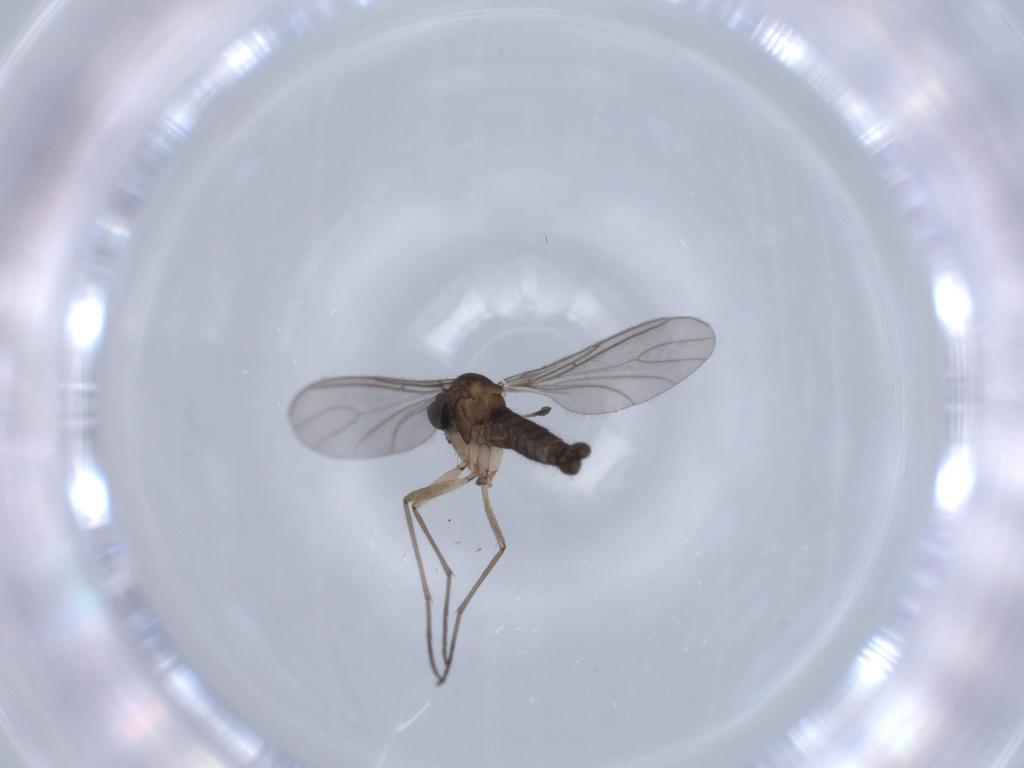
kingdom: Animalia
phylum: Arthropoda
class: Insecta
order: Diptera
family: Sciaridae
